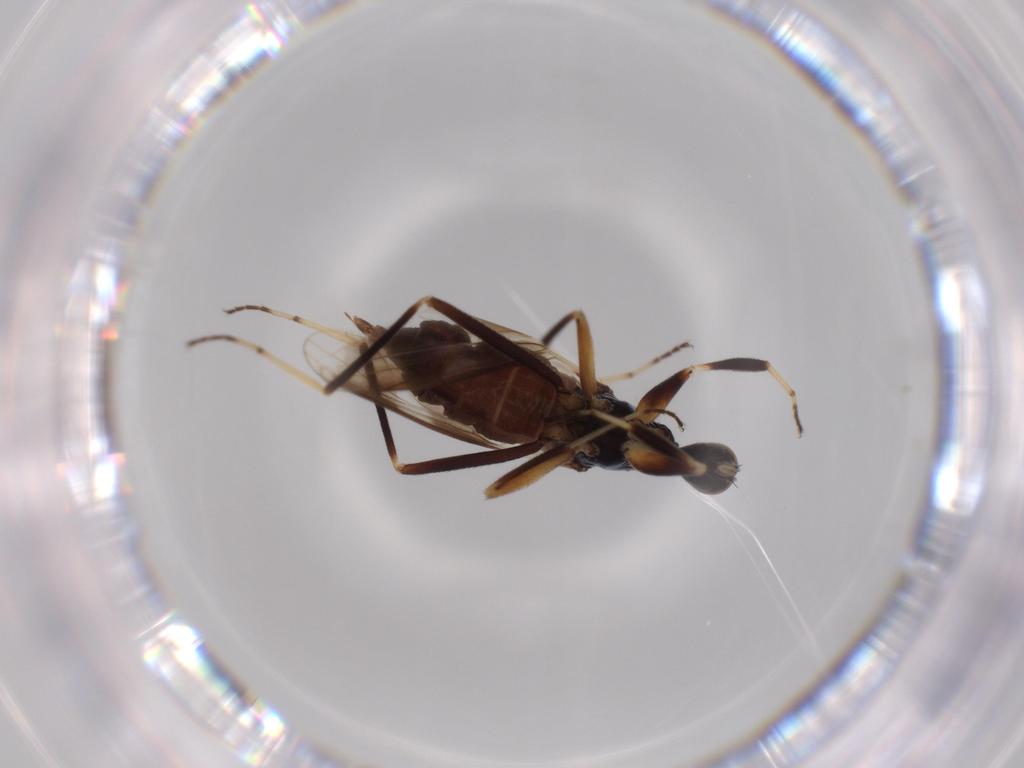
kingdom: Animalia
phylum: Arthropoda
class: Insecta
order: Diptera
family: Hybotidae
